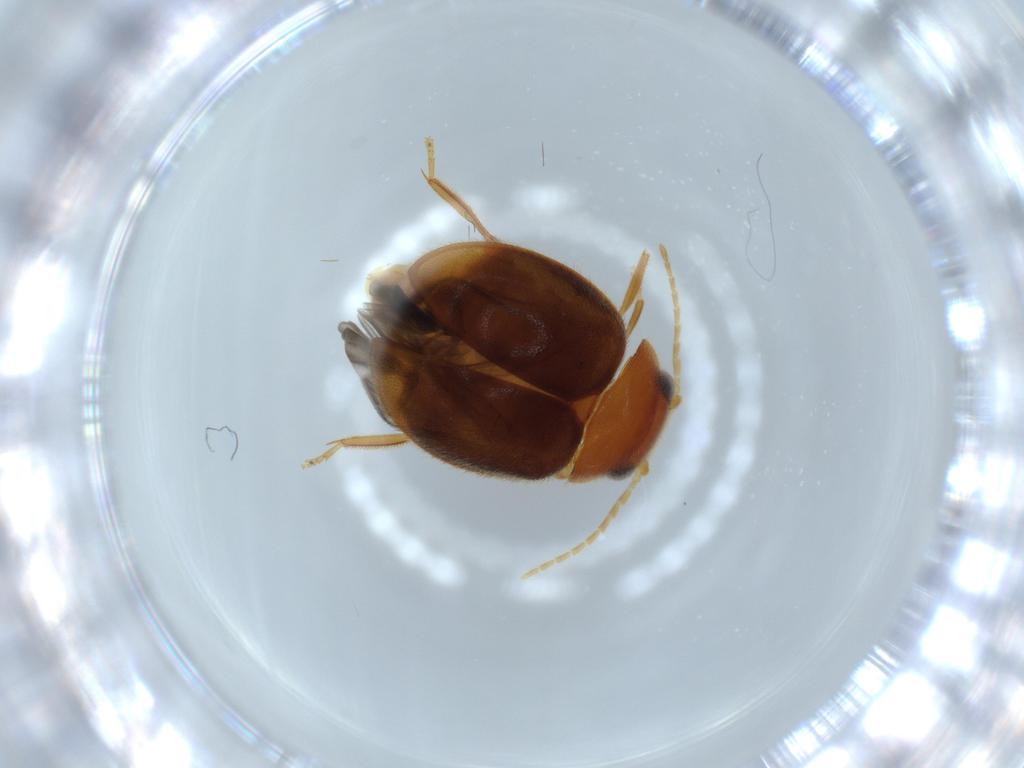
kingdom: Animalia
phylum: Arthropoda
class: Insecta
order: Coleoptera
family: Scirtidae
